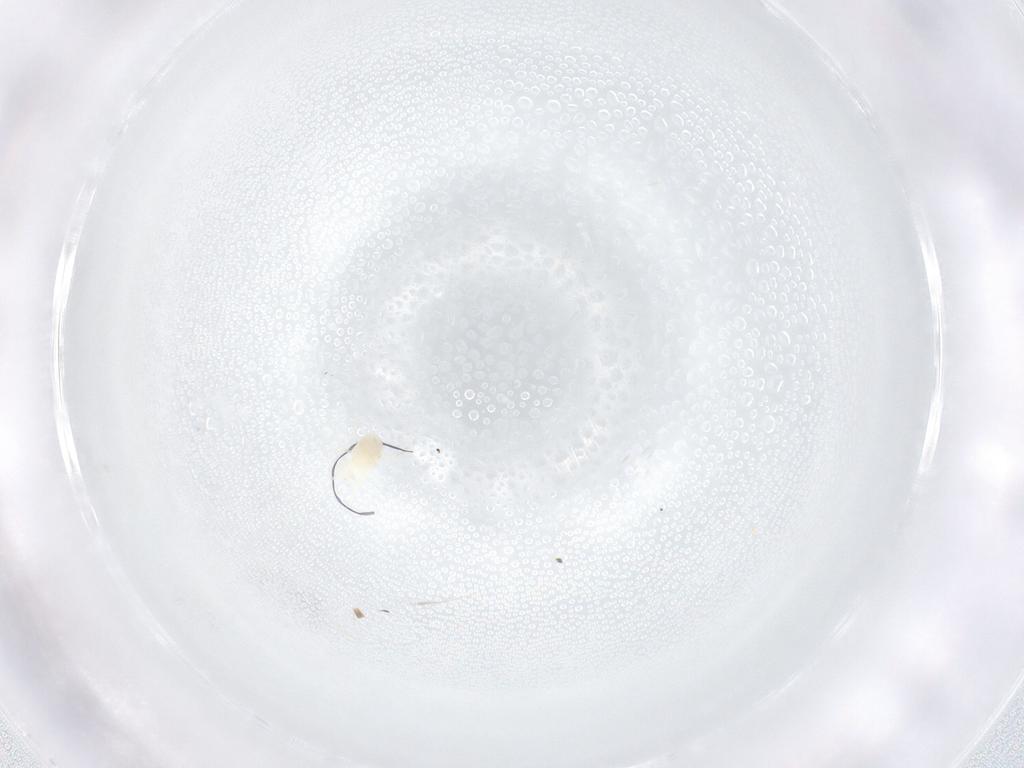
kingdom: Animalia
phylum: Arthropoda
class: Arachnida
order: Mesostigmata
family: Melicharidae
